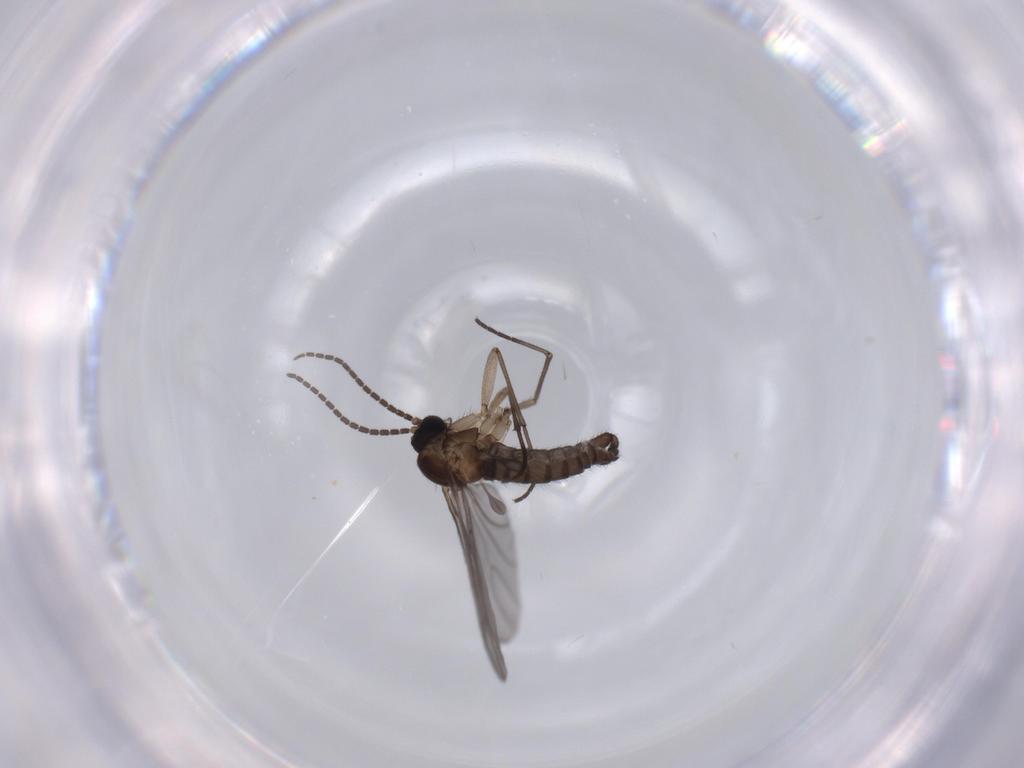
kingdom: Animalia
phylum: Arthropoda
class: Insecta
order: Diptera
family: Sciaridae
